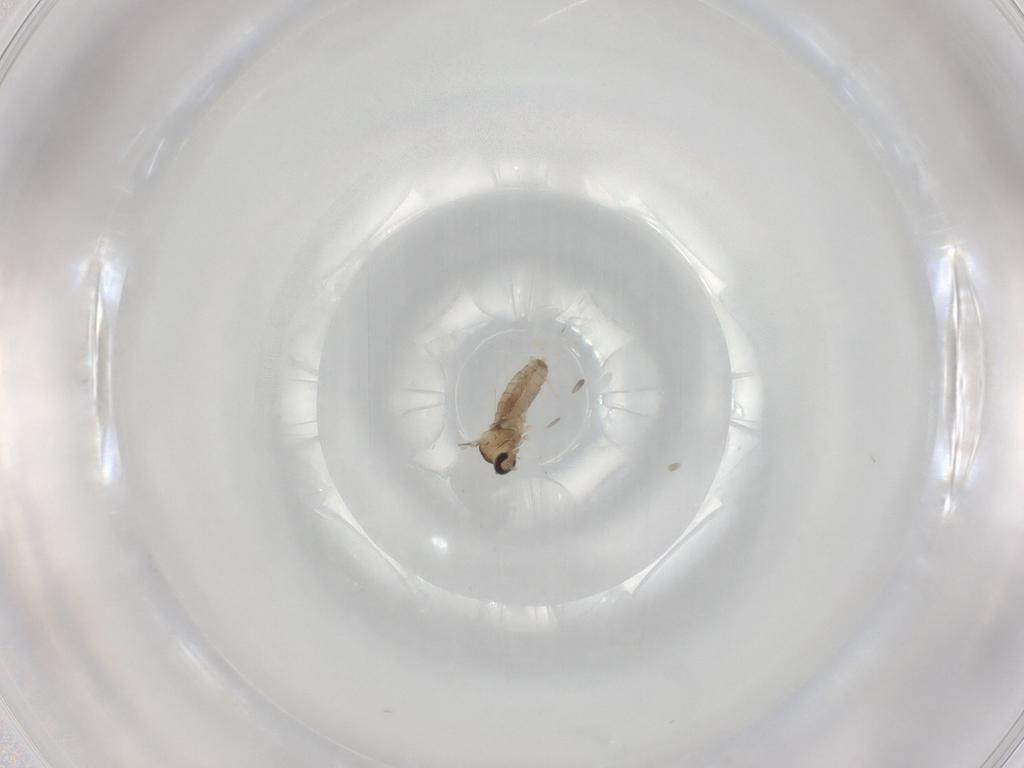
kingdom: Animalia
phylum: Arthropoda
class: Insecta
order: Diptera
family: Cecidomyiidae
